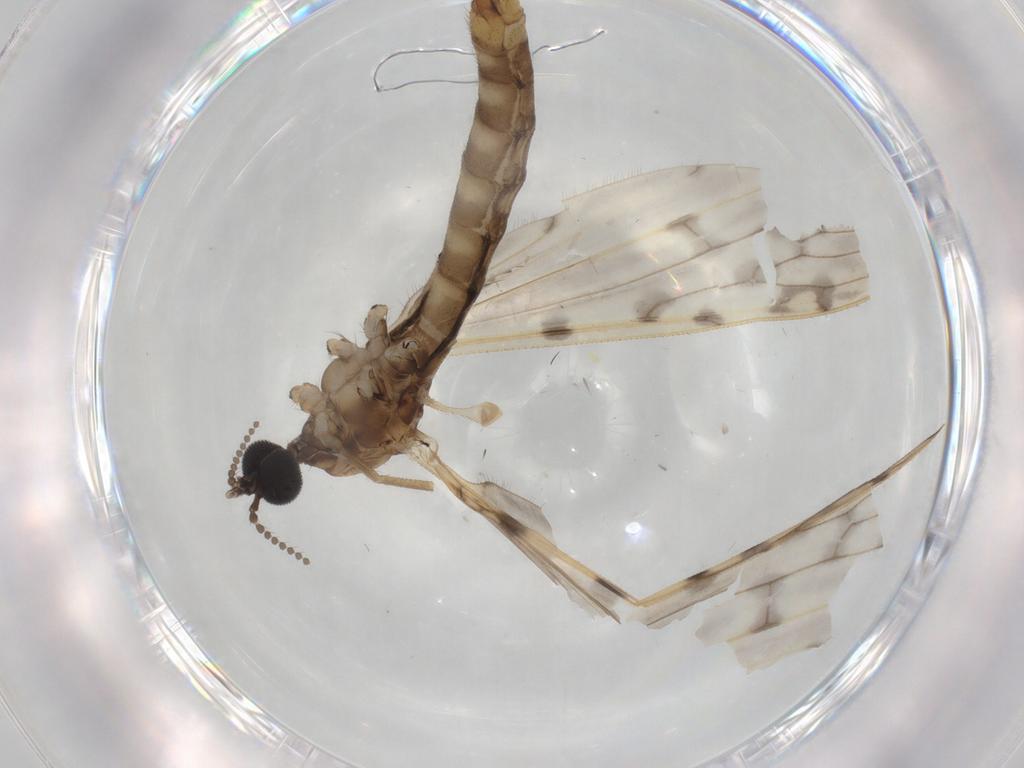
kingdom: Animalia
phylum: Arthropoda
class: Insecta
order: Diptera
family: Limoniidae
